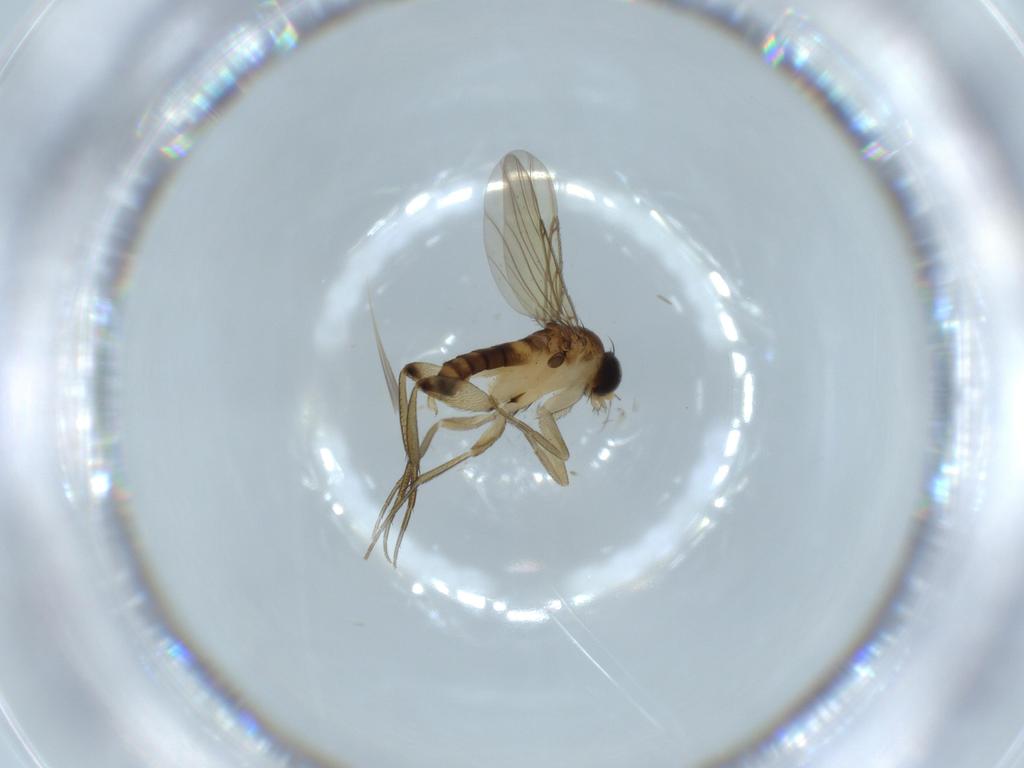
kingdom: Animalia
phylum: Arthropoda
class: Insecta
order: Diptera
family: Phoridae
